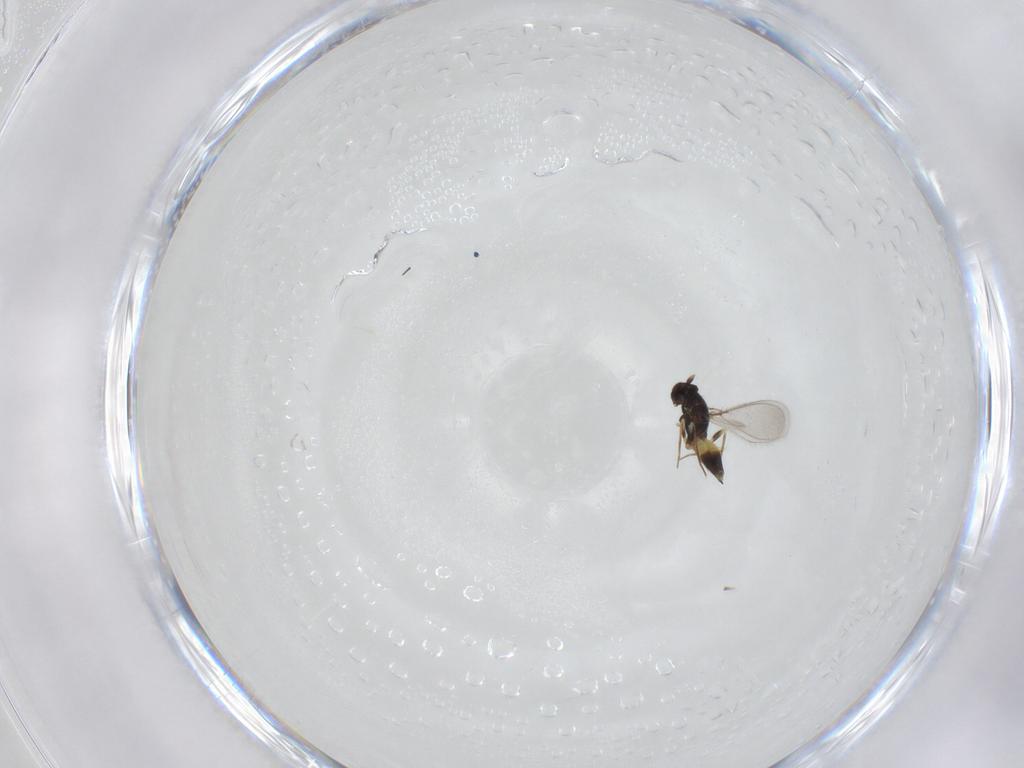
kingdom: Animalia
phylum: Arthropoda
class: Insecta
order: Hymenoptera
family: Mymaridae
